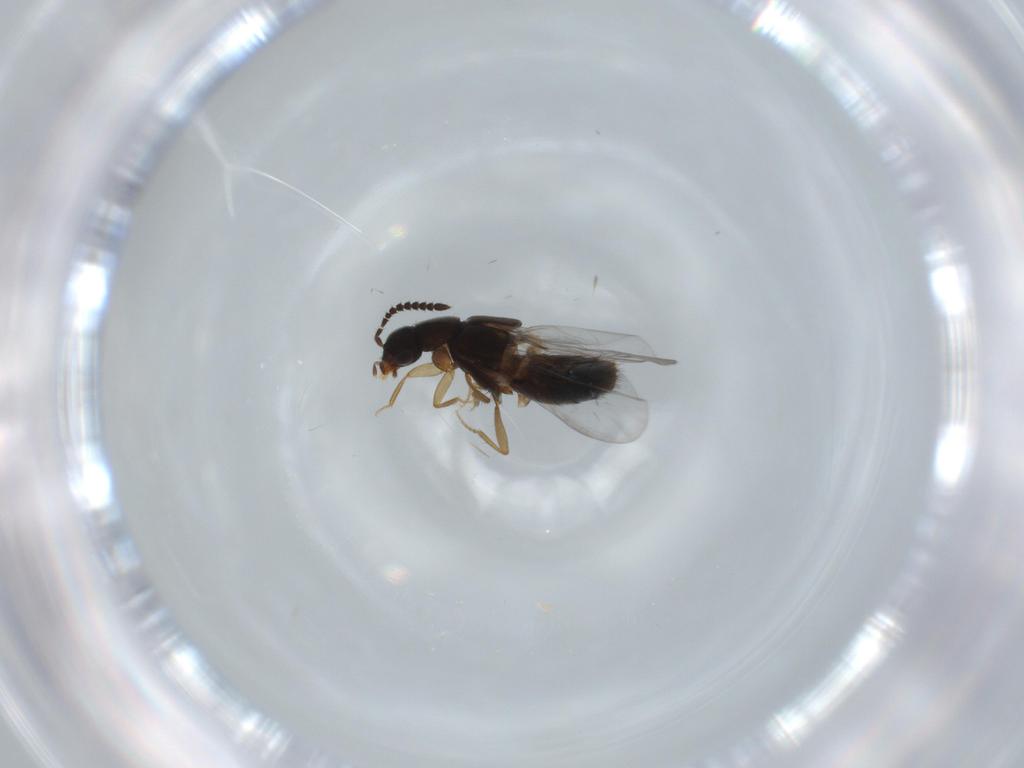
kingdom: Animalia
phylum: Arthropoda
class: Insecta
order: Coleoptera
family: Staphylinidae
